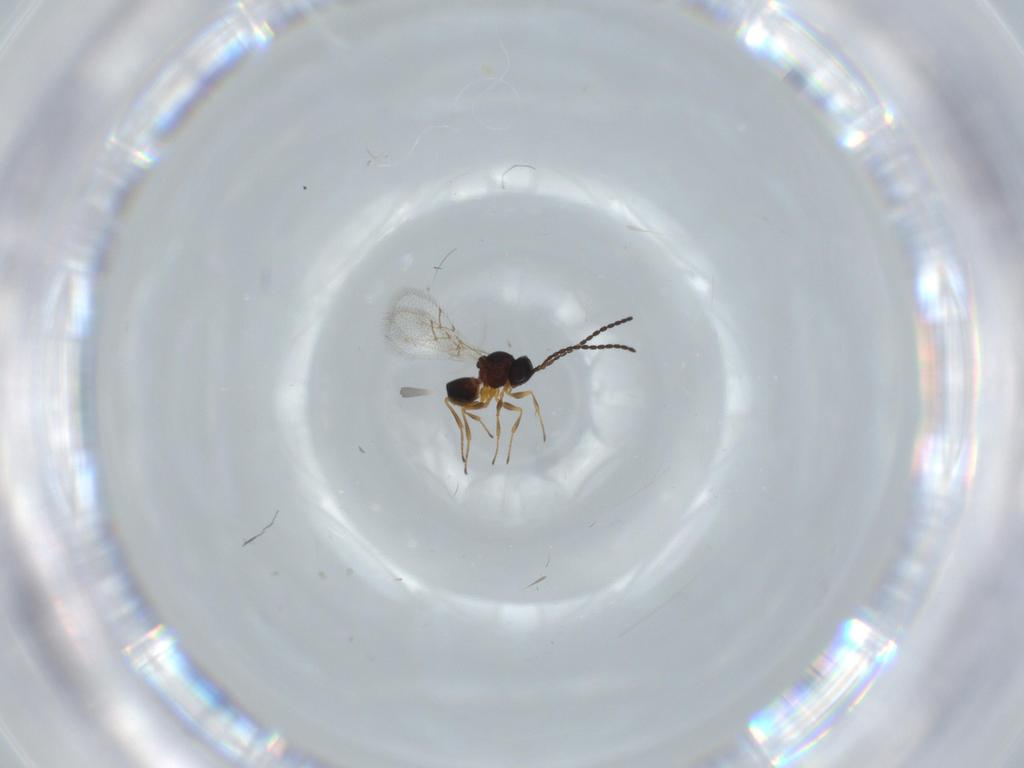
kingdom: Animalia
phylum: Arthropoda
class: Insecta
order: Hymenoptera
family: Figitidae
